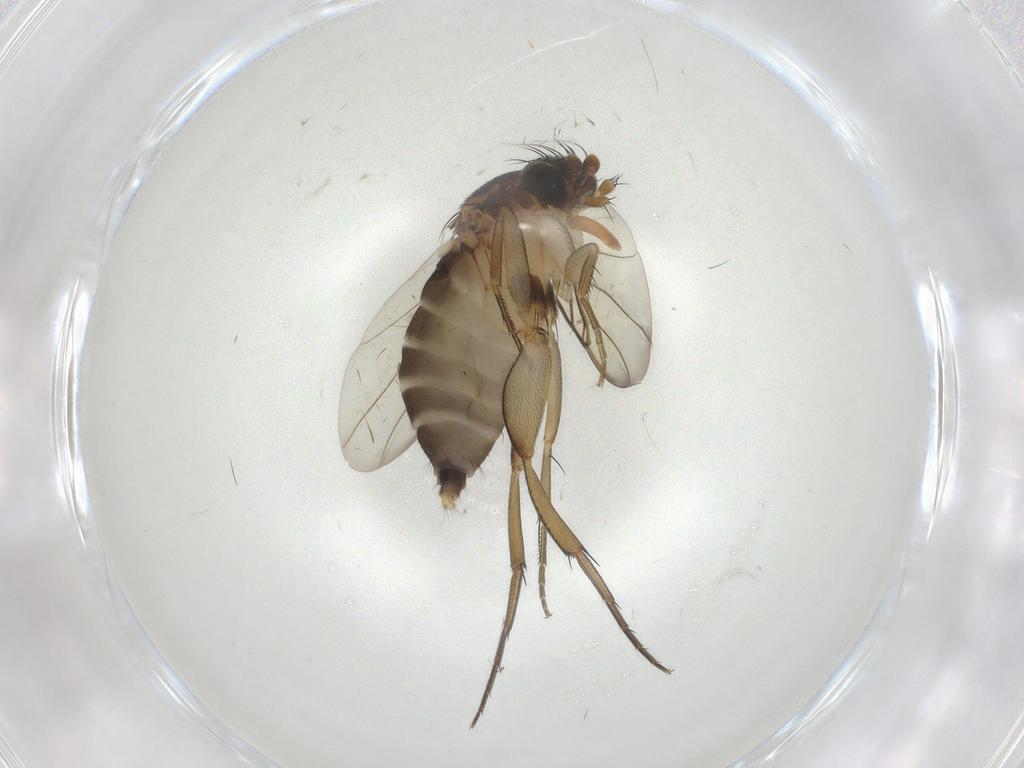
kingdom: Animalia
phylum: Arthropoda
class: Insecta
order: Diptera
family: Phoridae
